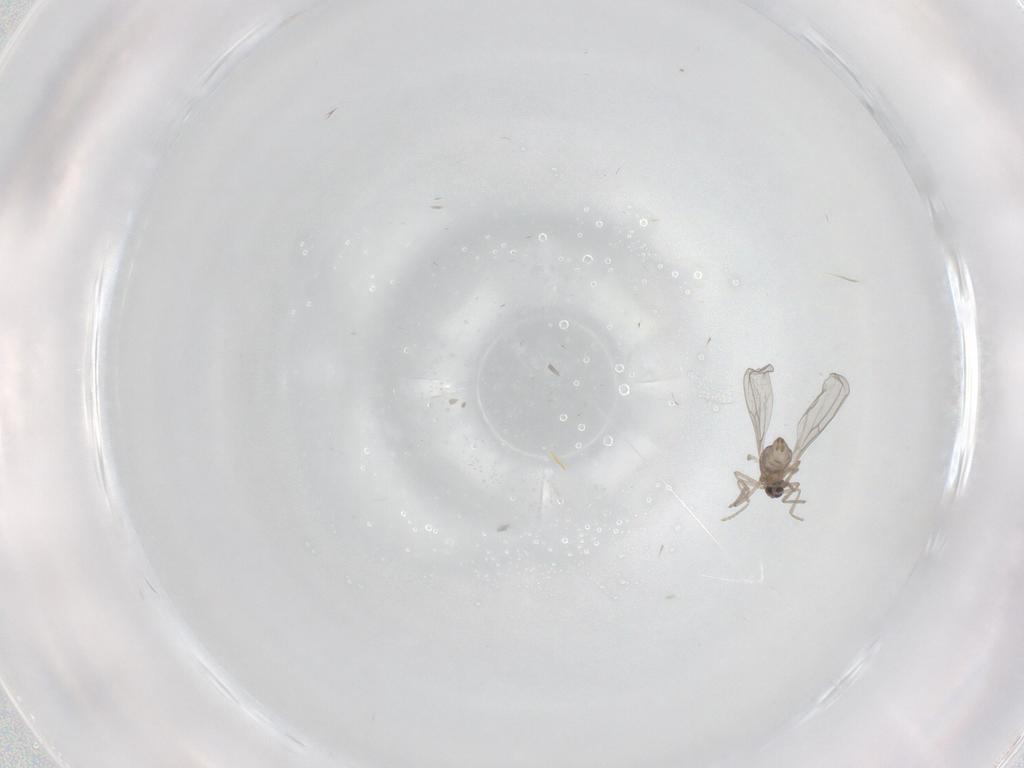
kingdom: Animalia
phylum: Arthropoda
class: Insecta
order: Diptera
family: Cecidomyiidae
